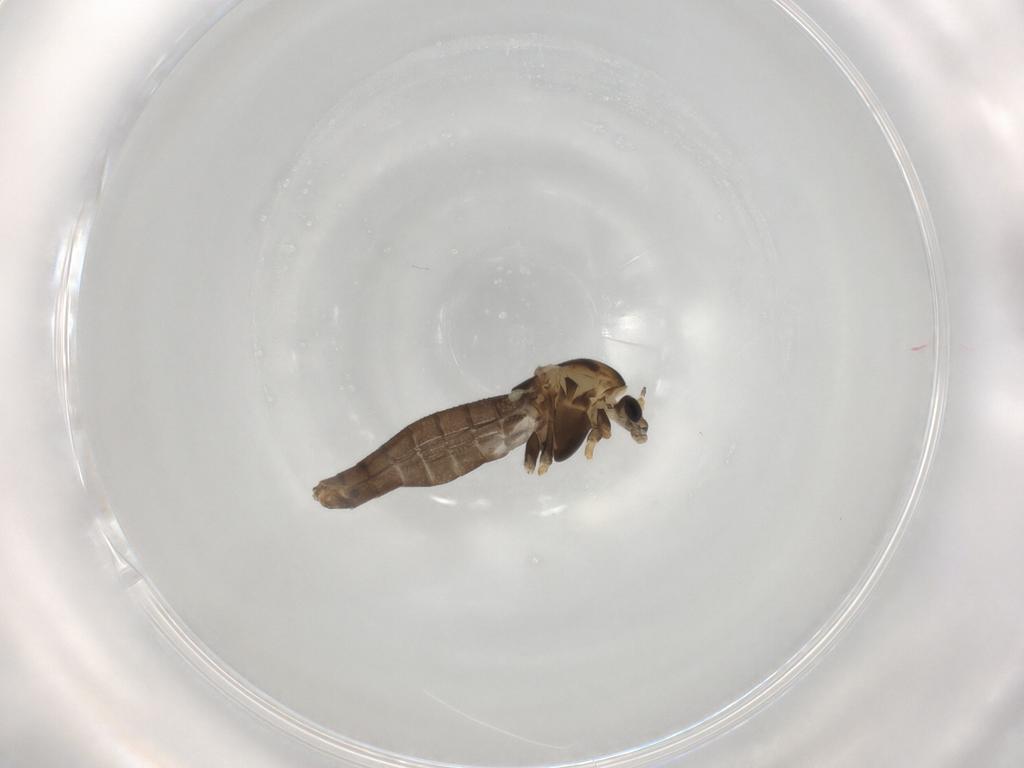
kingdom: Animalia
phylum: Arthropoda
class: Insecta
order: Diptera
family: Chironomidae
